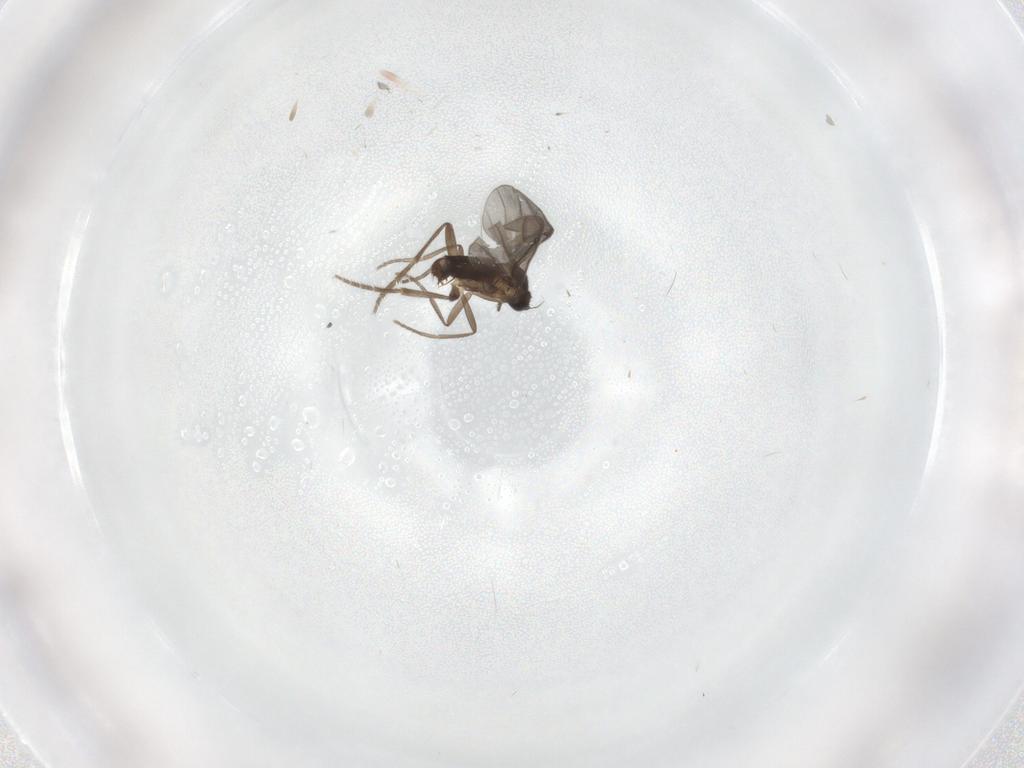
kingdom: Animalia
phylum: Arthropoda
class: Insecta
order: Diptera
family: Phoridae
